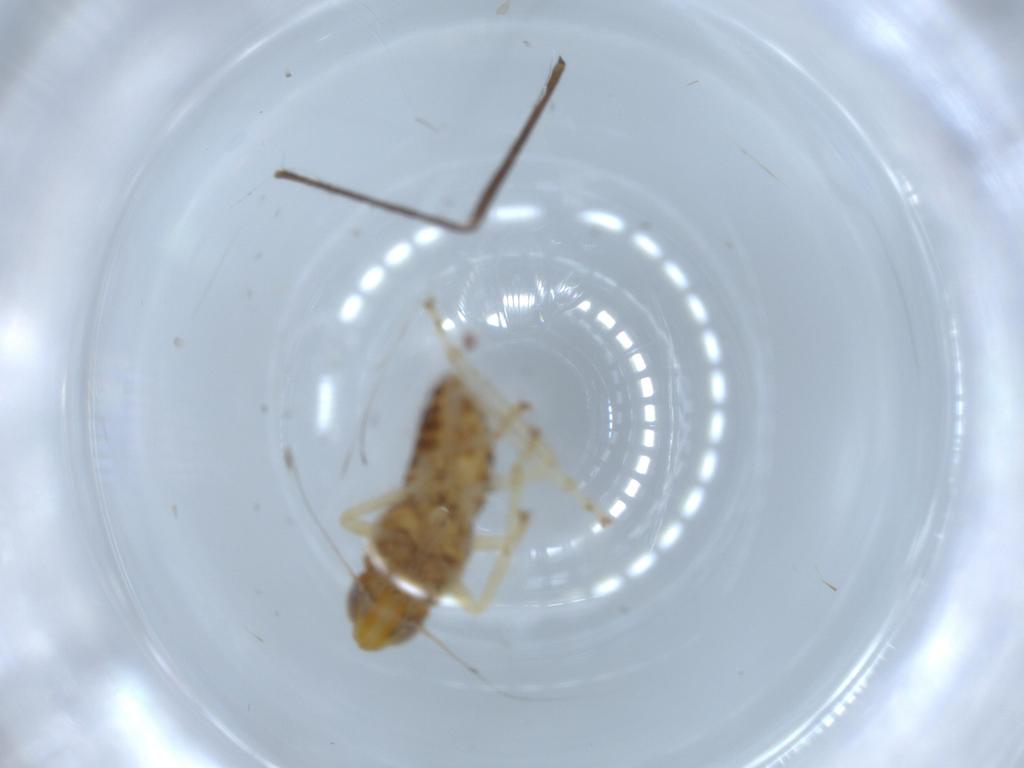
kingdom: Animalia
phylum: Arthropoda
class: Insecta
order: Hemiptera
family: Cicadellidae
